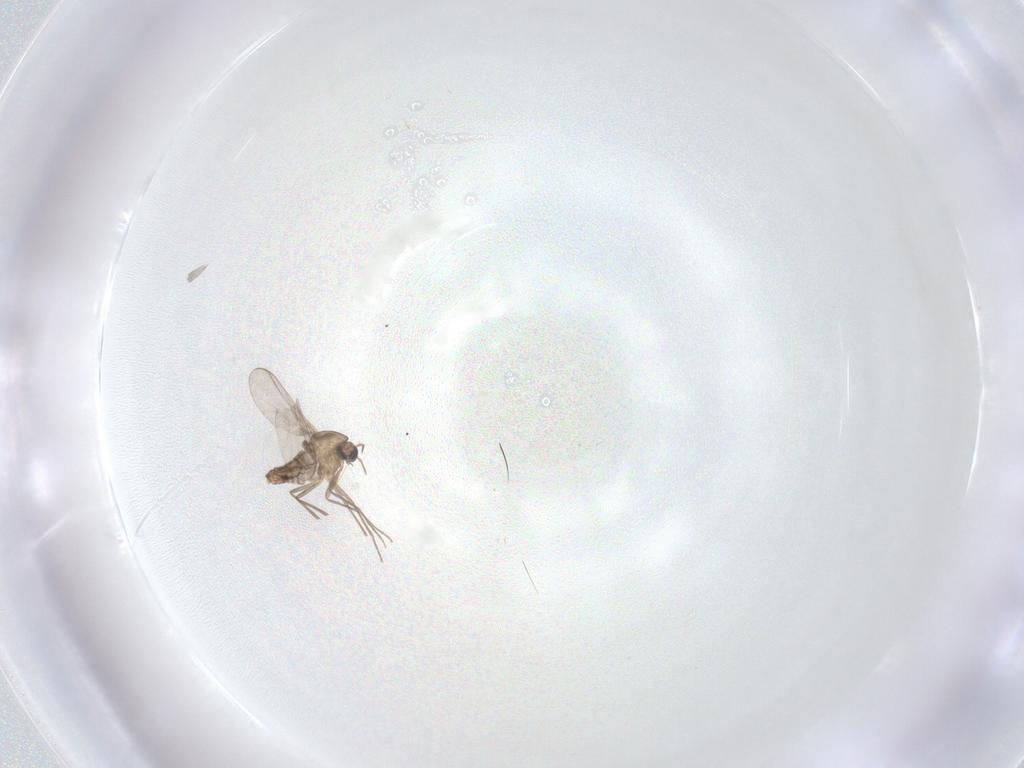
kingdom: Animalia
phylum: Arthropoda
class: Insecta
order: Diptera
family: Chironomidae
